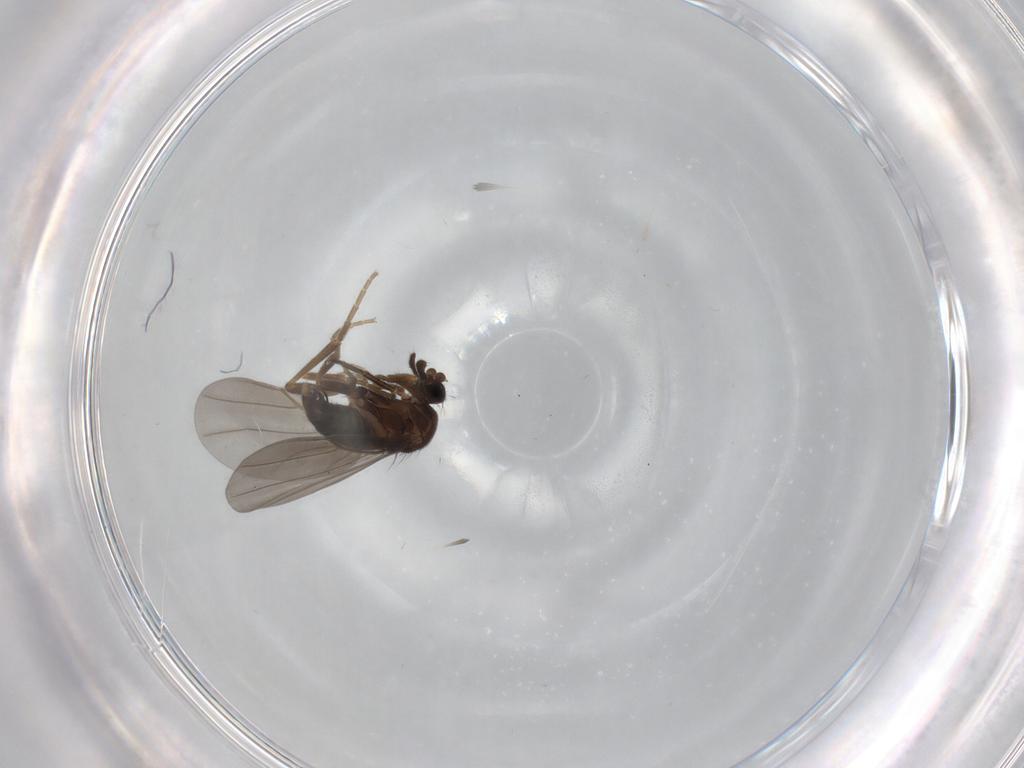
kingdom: Animalia
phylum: Arthropoda
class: Insecta
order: Diptera
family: Phoridae
